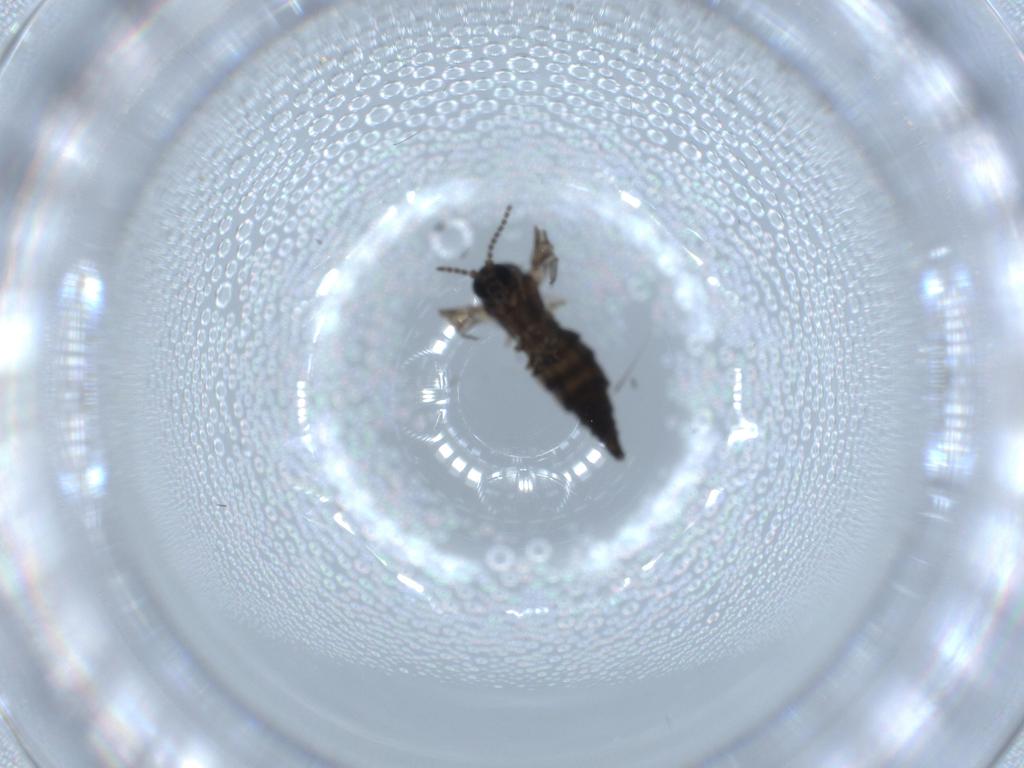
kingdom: Animalia
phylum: Arthropoda
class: Insecta
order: Diptera
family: Sciaridae
